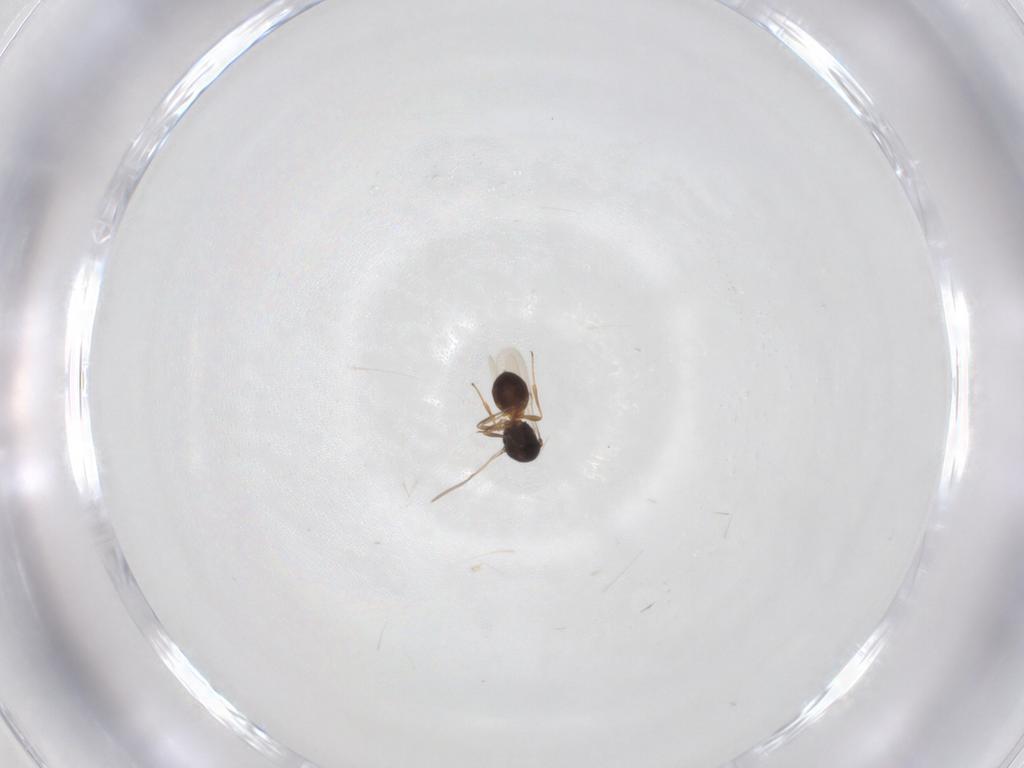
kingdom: Animalia
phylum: Arthropoda
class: Insecta
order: Hymenoptera
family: Scelionidae
